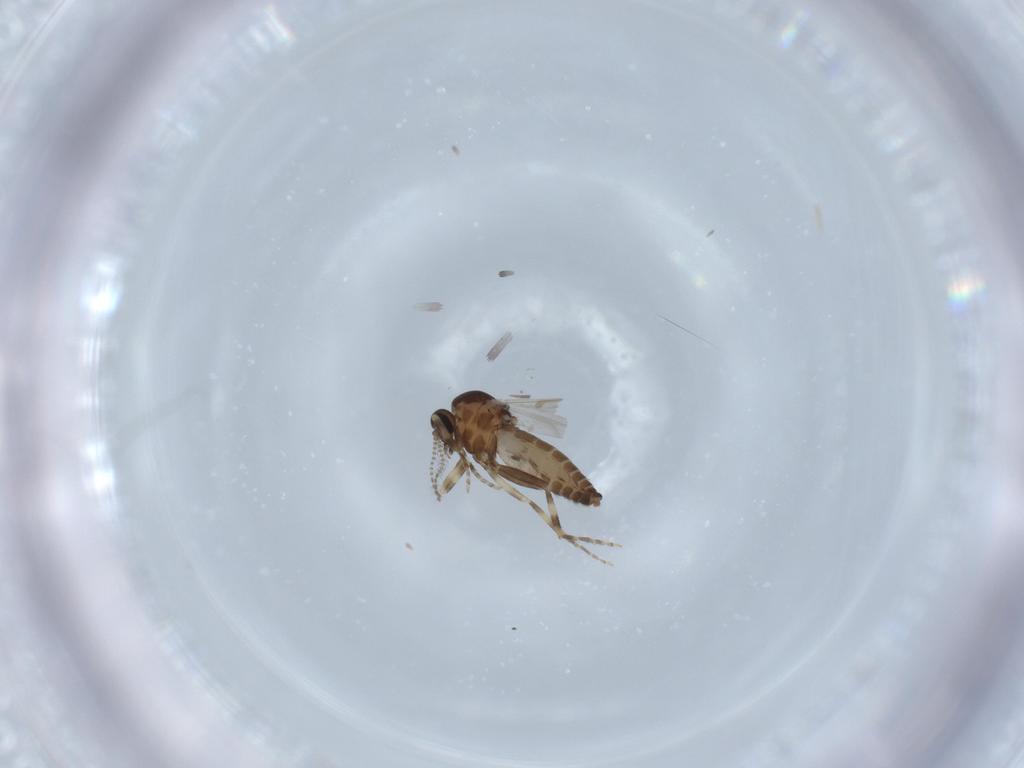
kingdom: Animalia
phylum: Arthropoda
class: Insecta
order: Diptera
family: Ceratopogonidae
